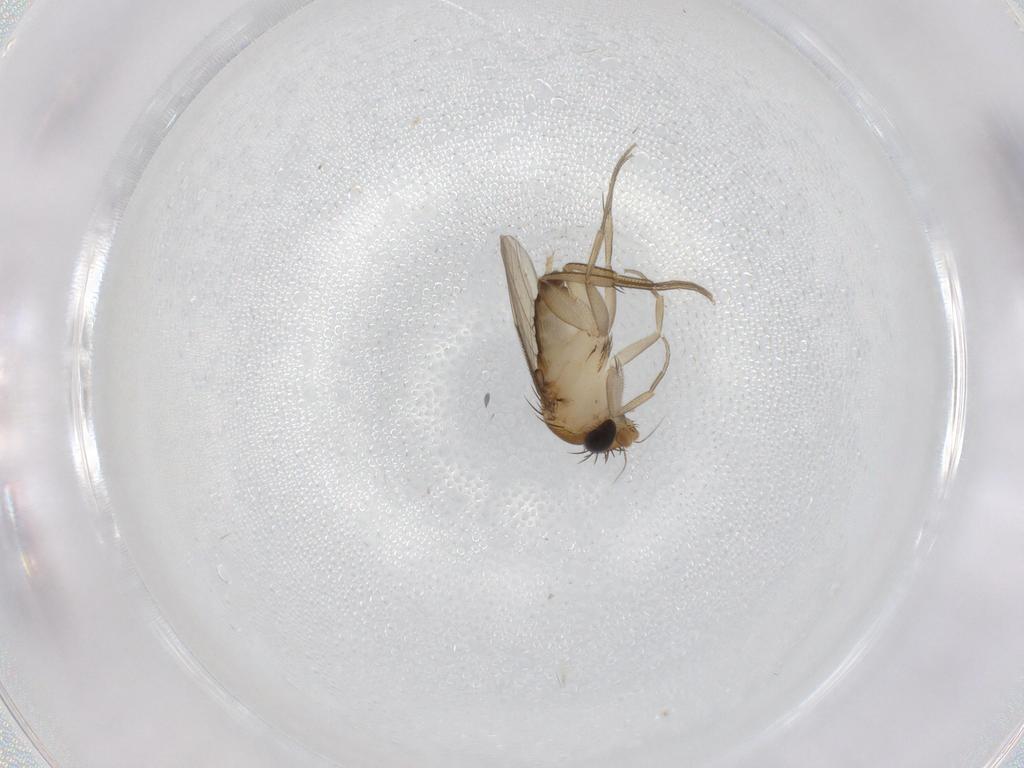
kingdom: Animalia
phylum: Arthropoda
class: Insecta
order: Diptera
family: Phoridae
